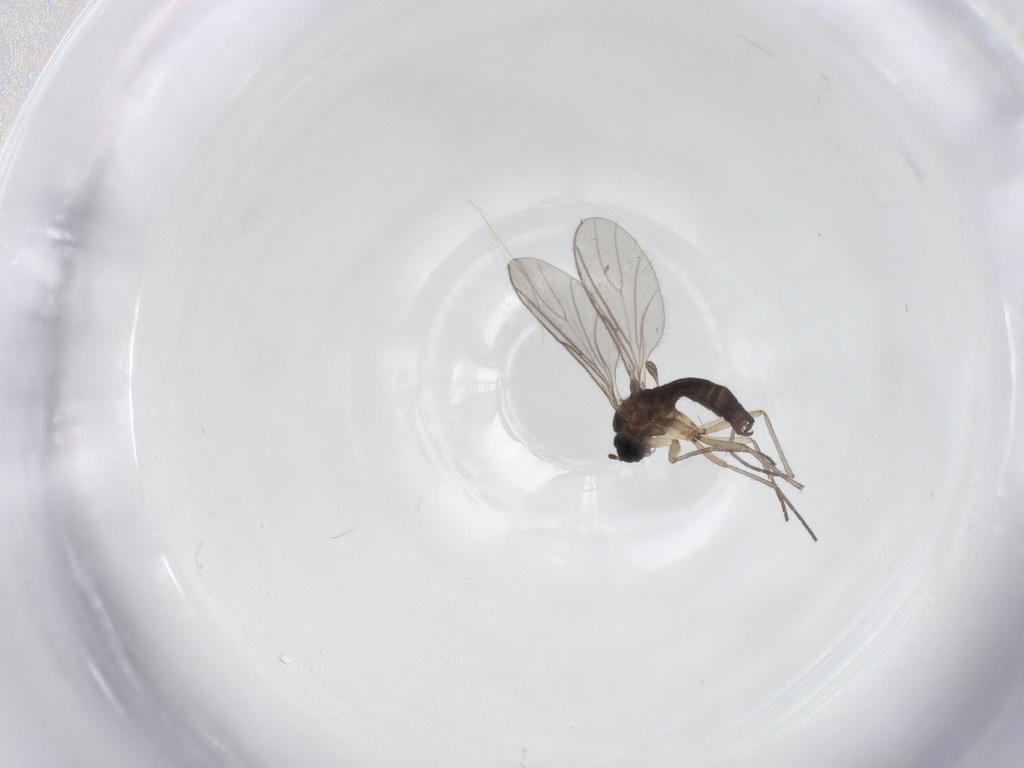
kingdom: Animalia
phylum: Arthropoda
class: Insecta
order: Diptera
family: Sciaridae
